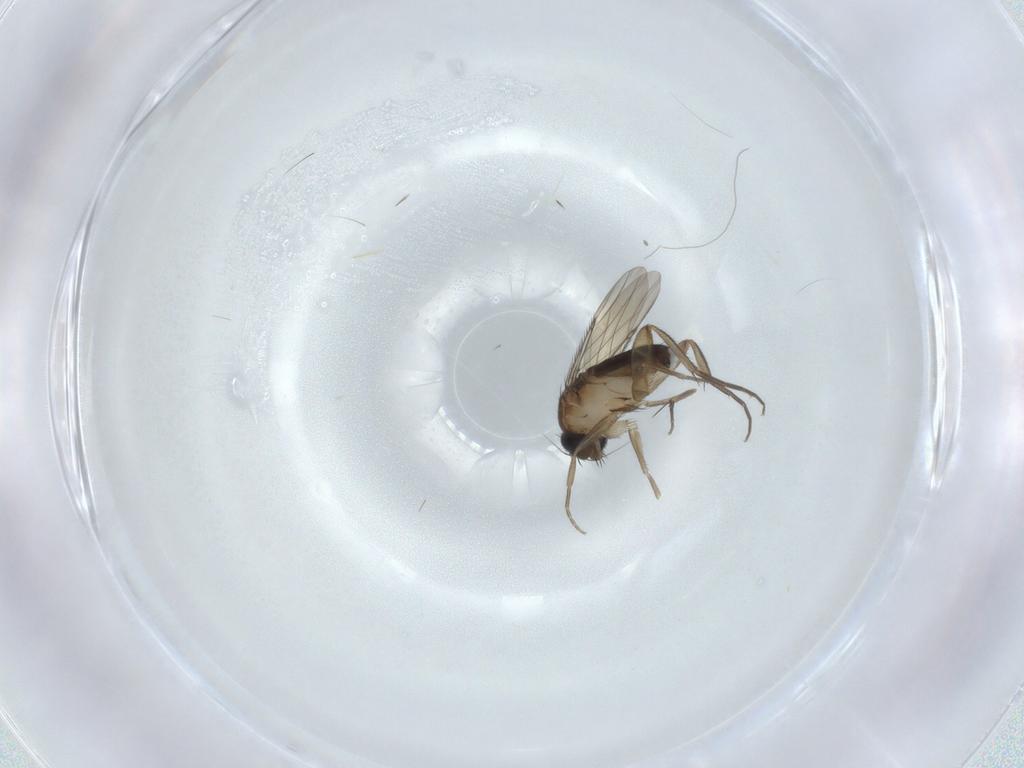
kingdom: Animalia
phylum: Arthropoda
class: Insecta
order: Diptera
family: Phoridae
